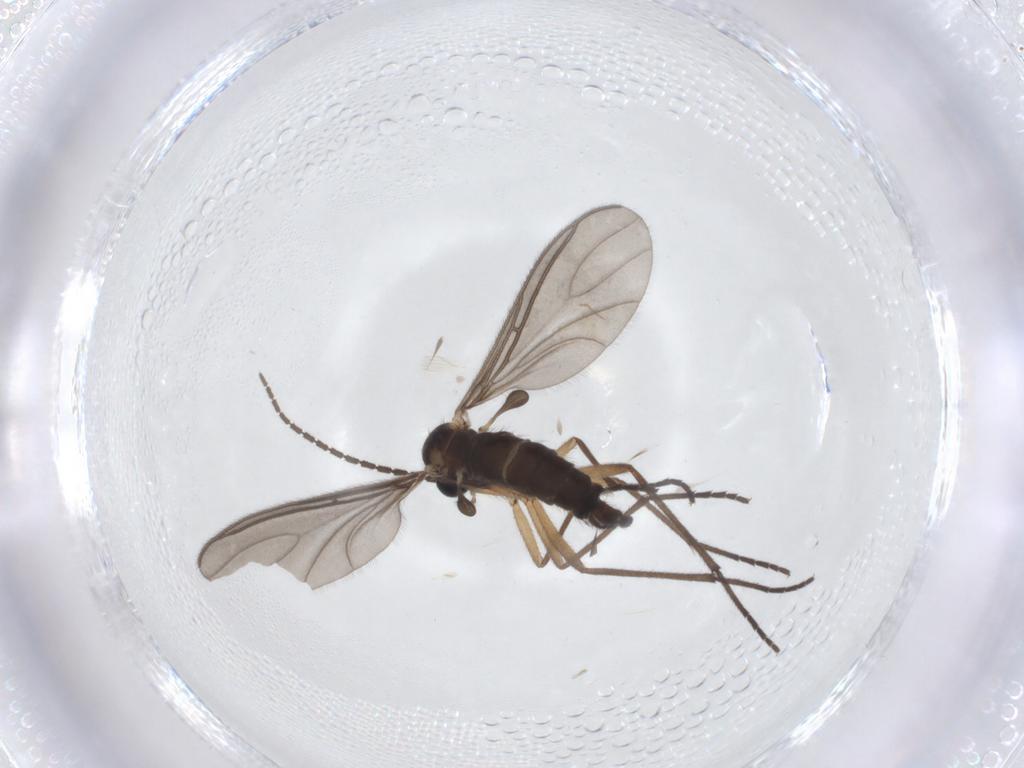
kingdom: Animalia
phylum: Arthropoda
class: Insecta
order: Diptera
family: Sciaridae
